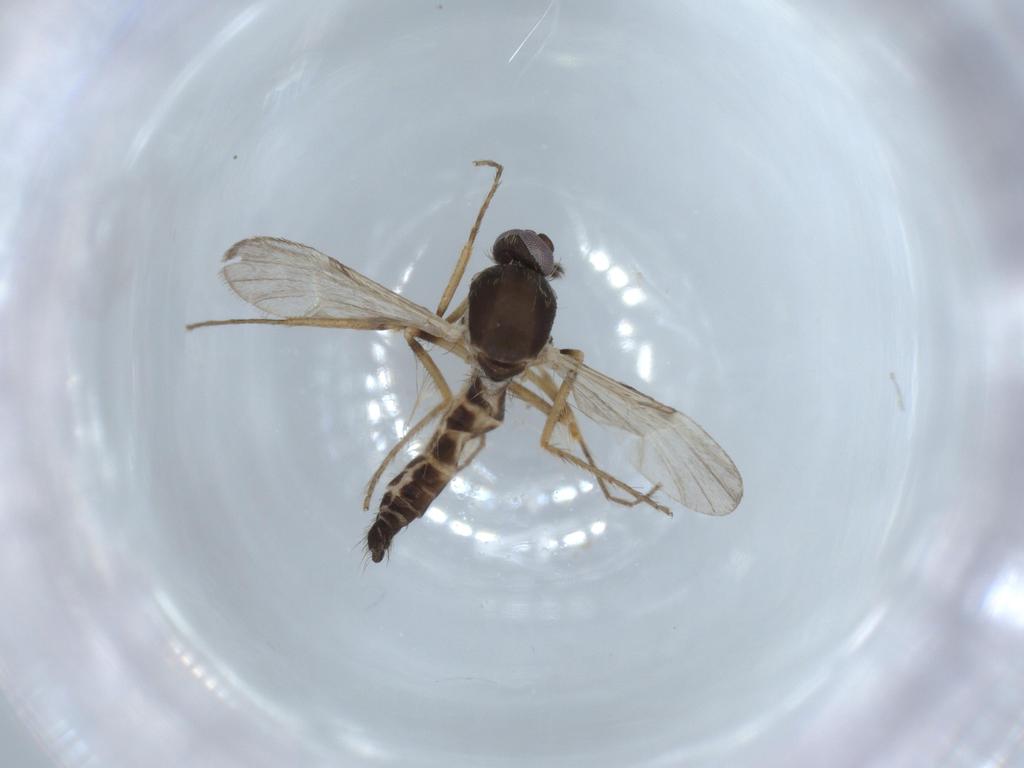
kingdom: Animalia
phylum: Arthropoda
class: Insecta
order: Diptera
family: Ceratopogonidae
